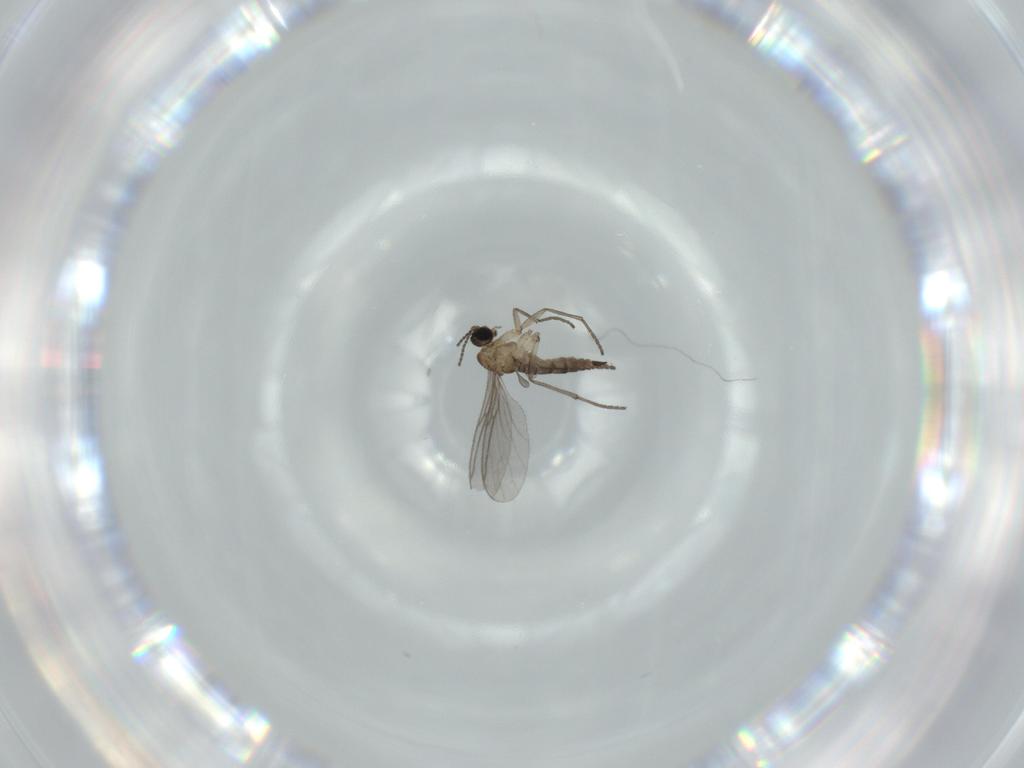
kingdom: Animalia
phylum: Arthropoda
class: Insecta
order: Diptera
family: Sciaridae
